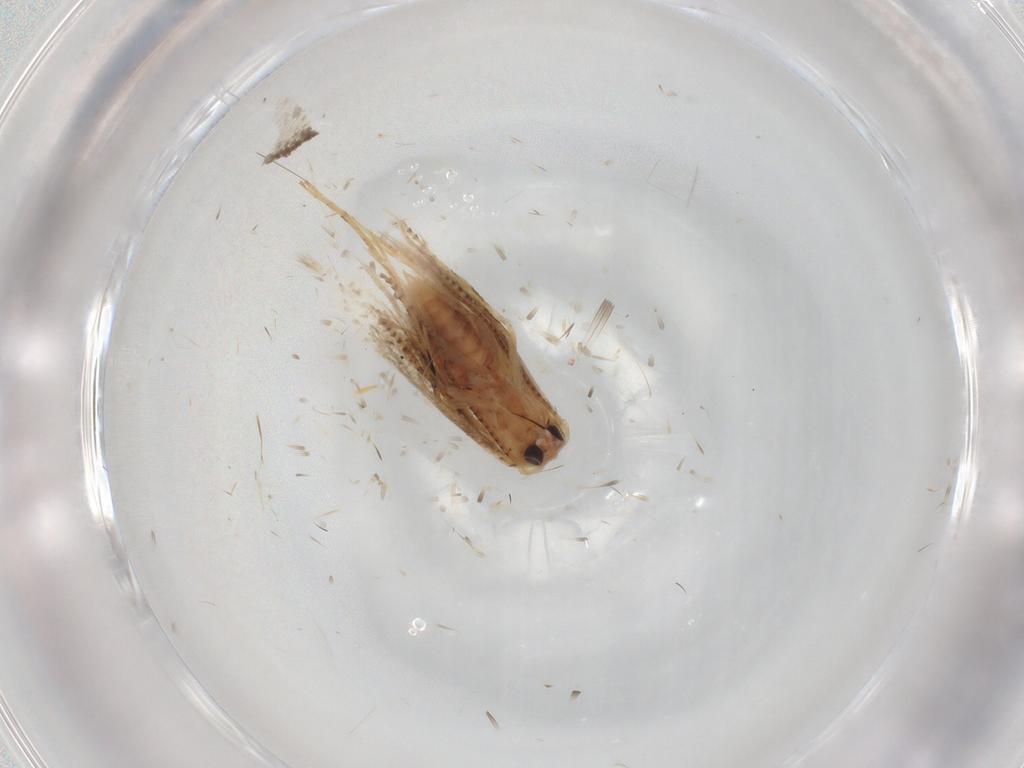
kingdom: Animalia
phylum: Arthropoda
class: Insecta
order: Lepidoptera
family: Bucculatricidae
